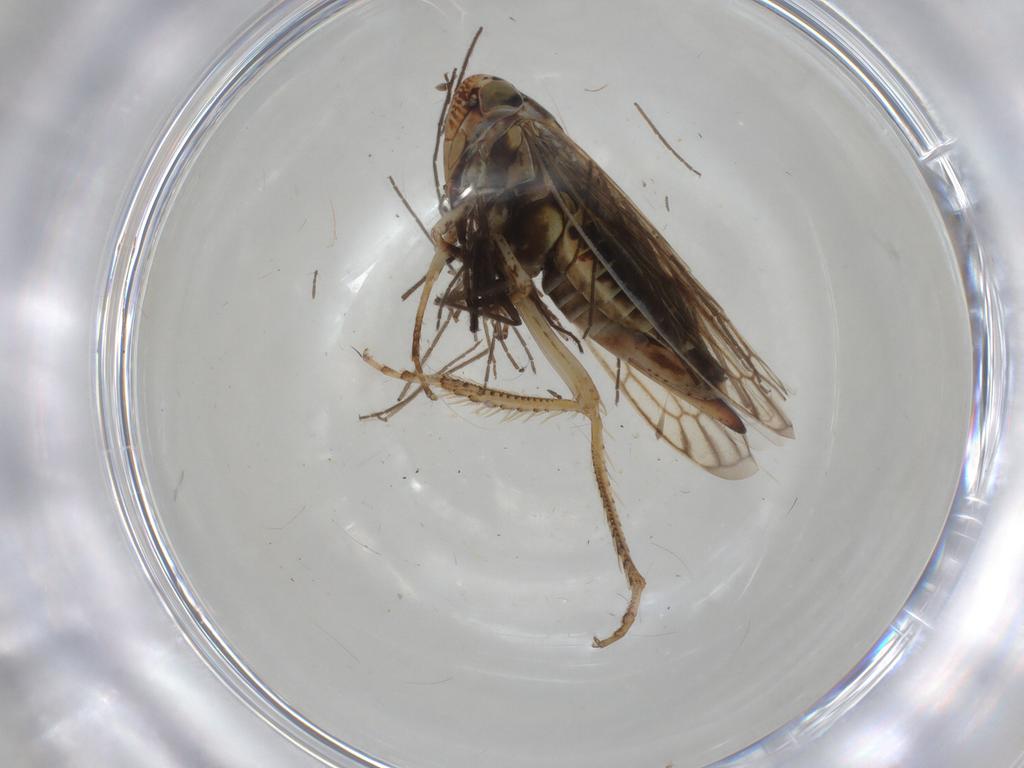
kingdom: Animalia
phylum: Arthropoda
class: Insecta
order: Hemiptera
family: Cicadellidae
